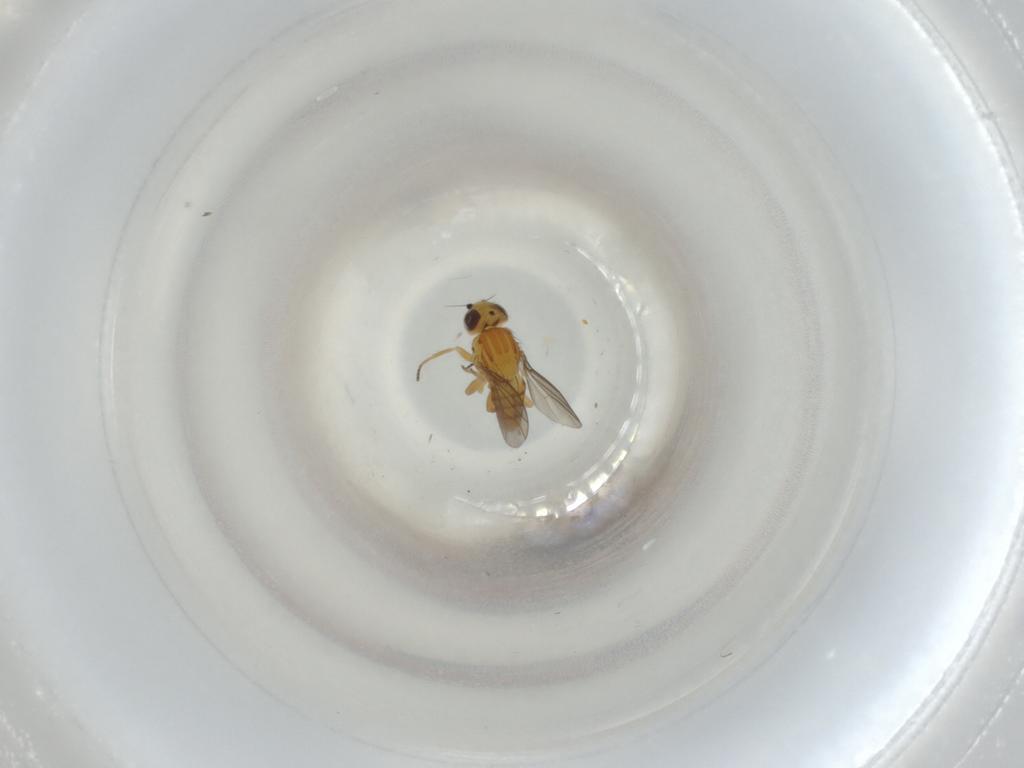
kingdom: Animalia
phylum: Arthropoda
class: Insecta
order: Diptera
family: Chloropidae
